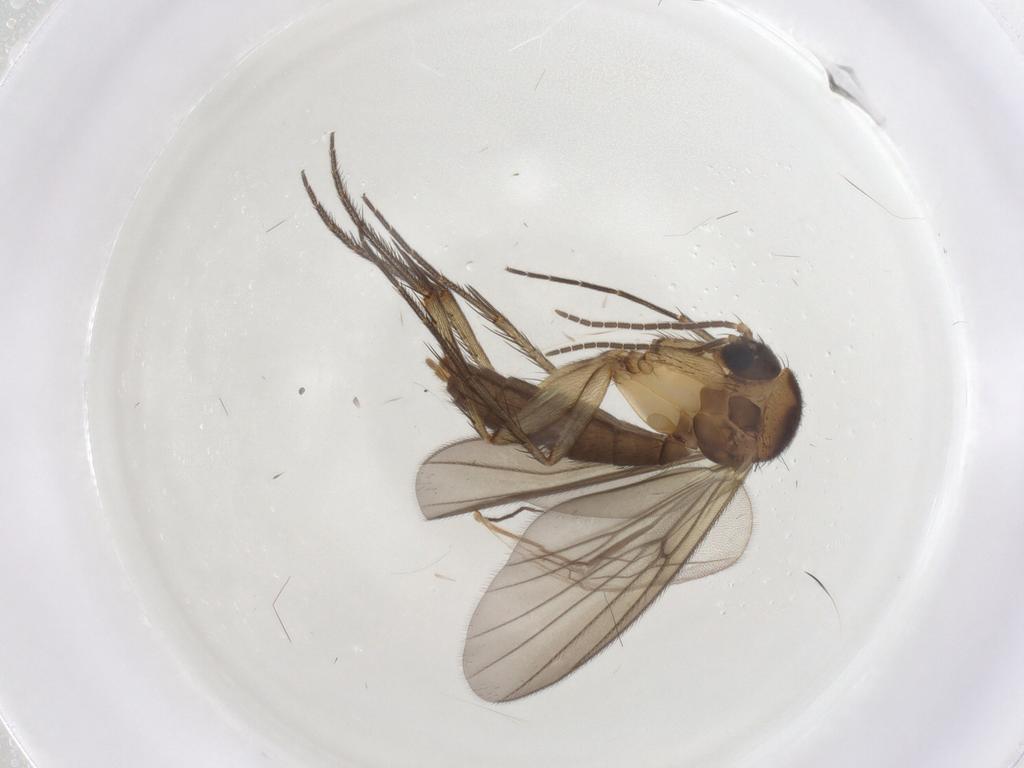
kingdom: Animalia
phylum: Arthropoda
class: Insecta
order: Diptera
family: Mycetophilidae
